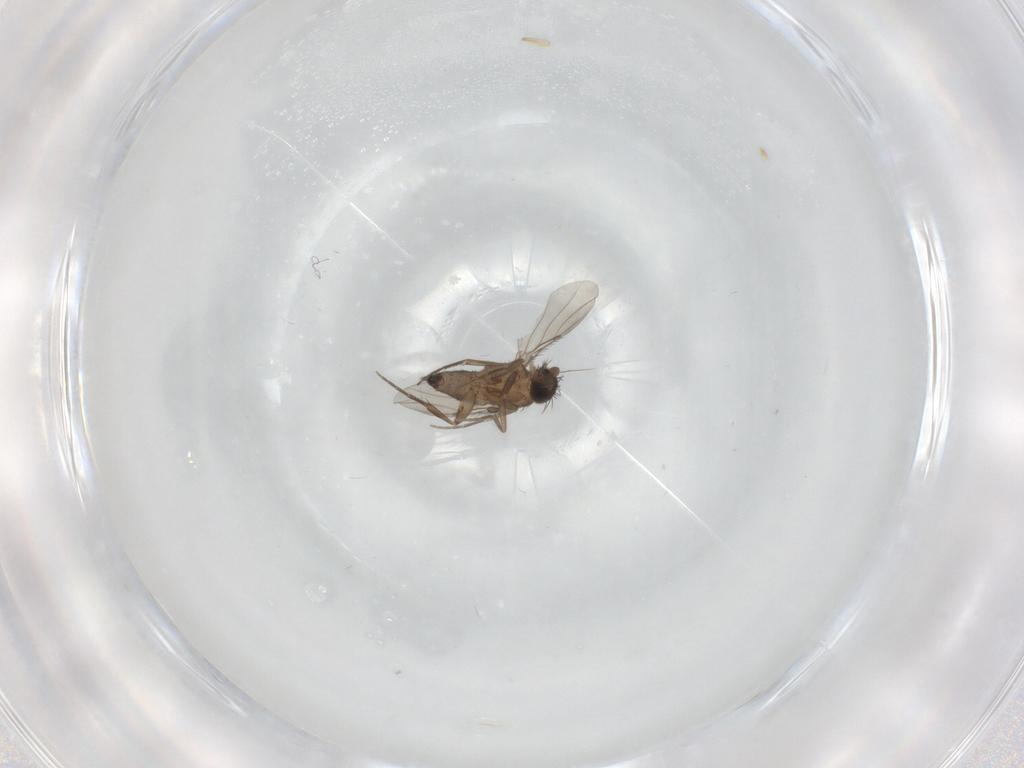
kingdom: Animalia
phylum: Arthropoda
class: Insecta
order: Diptera
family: Phoridae
